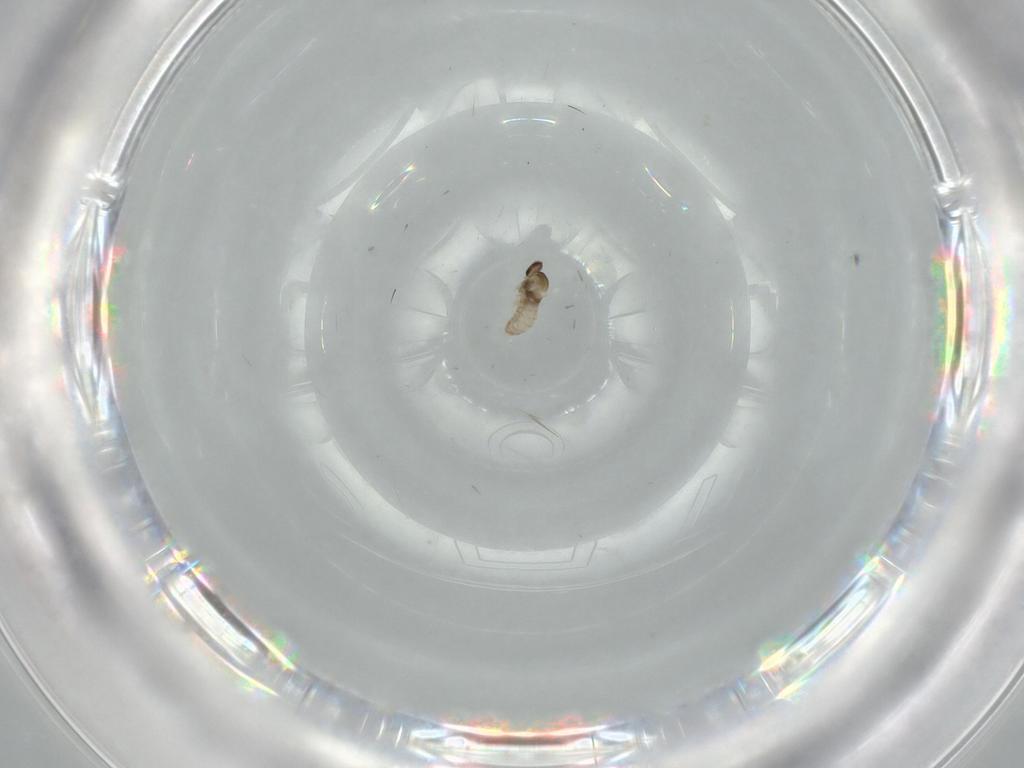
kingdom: Animalia
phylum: Arthropoda
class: Insecta
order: Diptera
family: Cecidomyiidae
